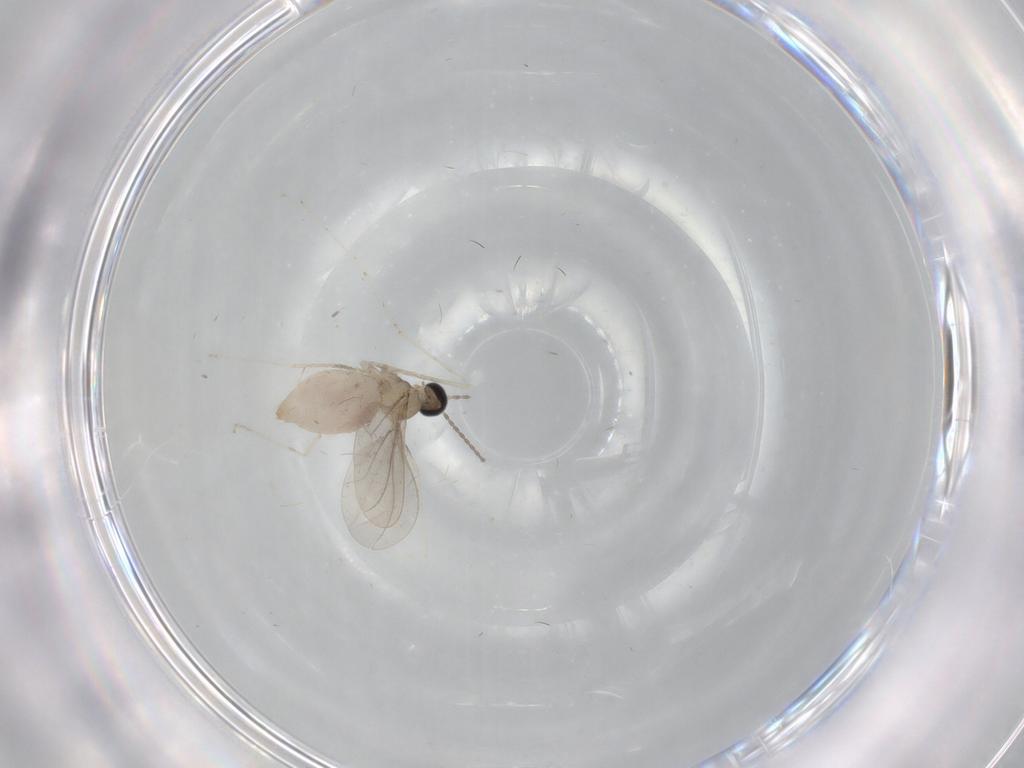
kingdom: Animalia
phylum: Arthropoda
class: Insecta
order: Diptera
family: Cecidomyiidae
